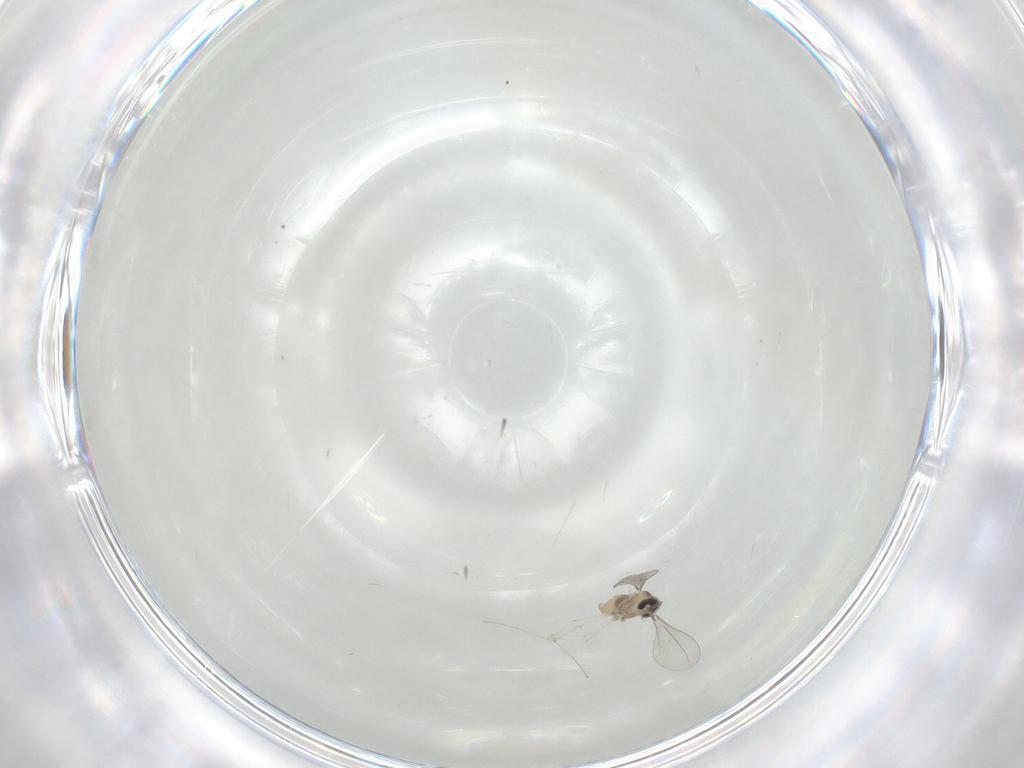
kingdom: Animalia
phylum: Arthropoda
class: Insecta
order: Diptera
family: Cecidomyiidae
